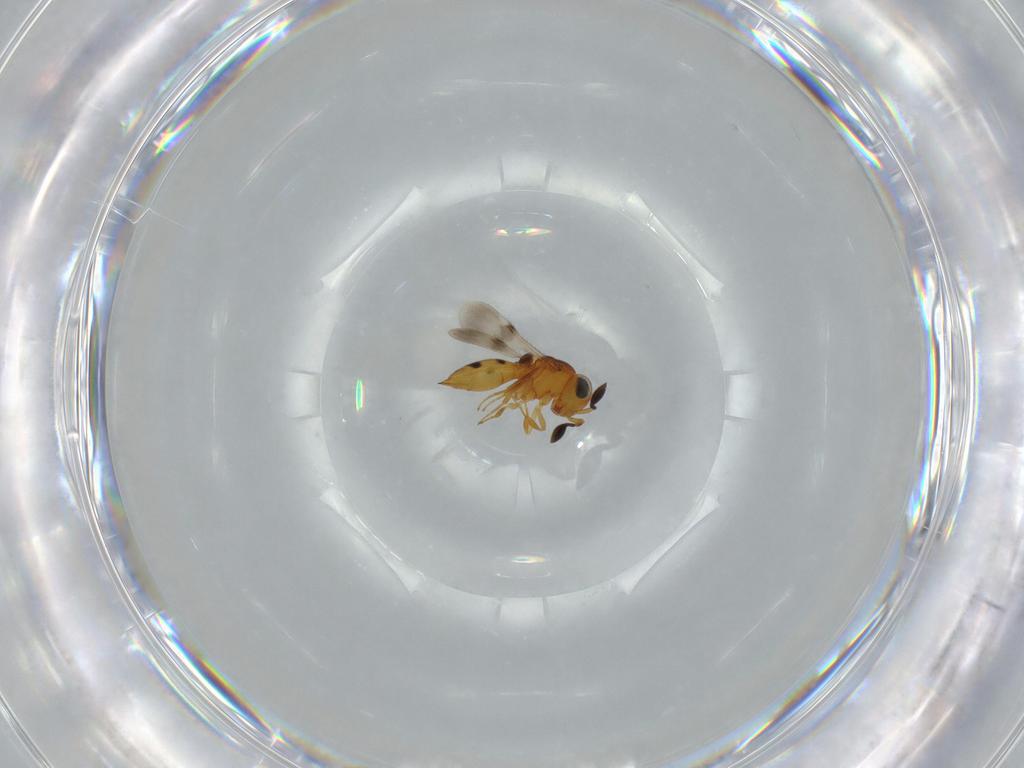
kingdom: Animalia
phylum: Arthropoda
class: Insecta
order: Hymenoptera
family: Scelionidae
